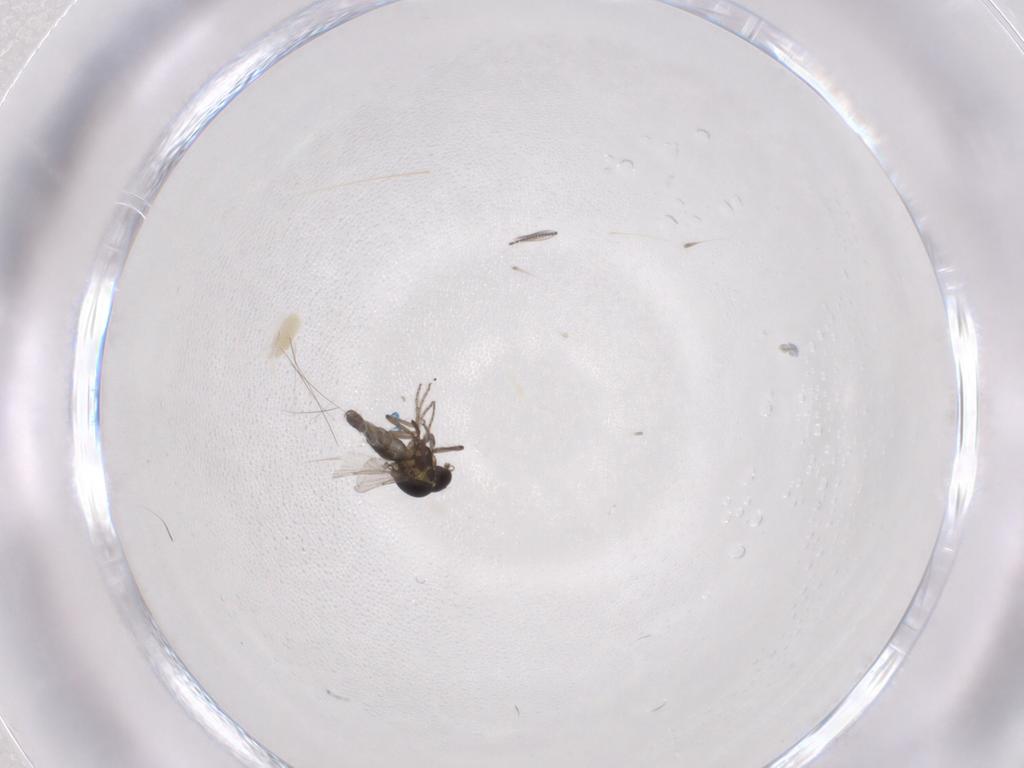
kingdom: Animalia
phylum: Arthropoda
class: Insecta
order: Diptera
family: Ceratopogonidae
